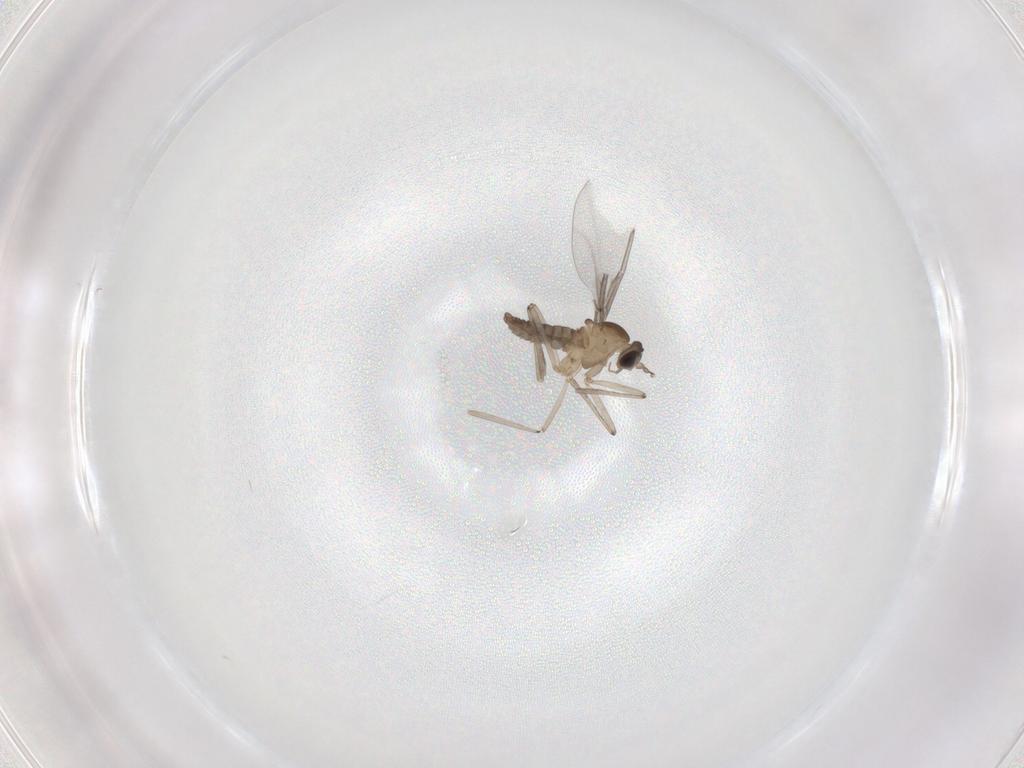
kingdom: Animalia
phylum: Arthropoda
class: Insecta
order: Diptera
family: Cecidomyiidae
